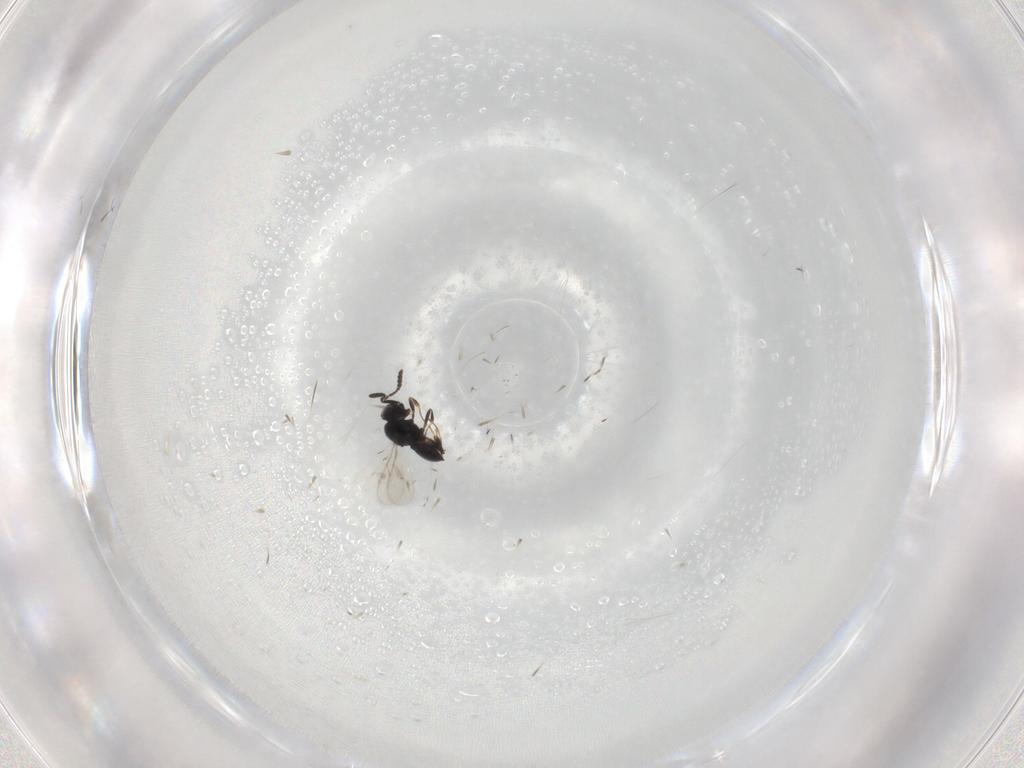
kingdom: Animalia
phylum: Arthropoda
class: Insecta
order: Hymenoptera
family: Scelionidae
